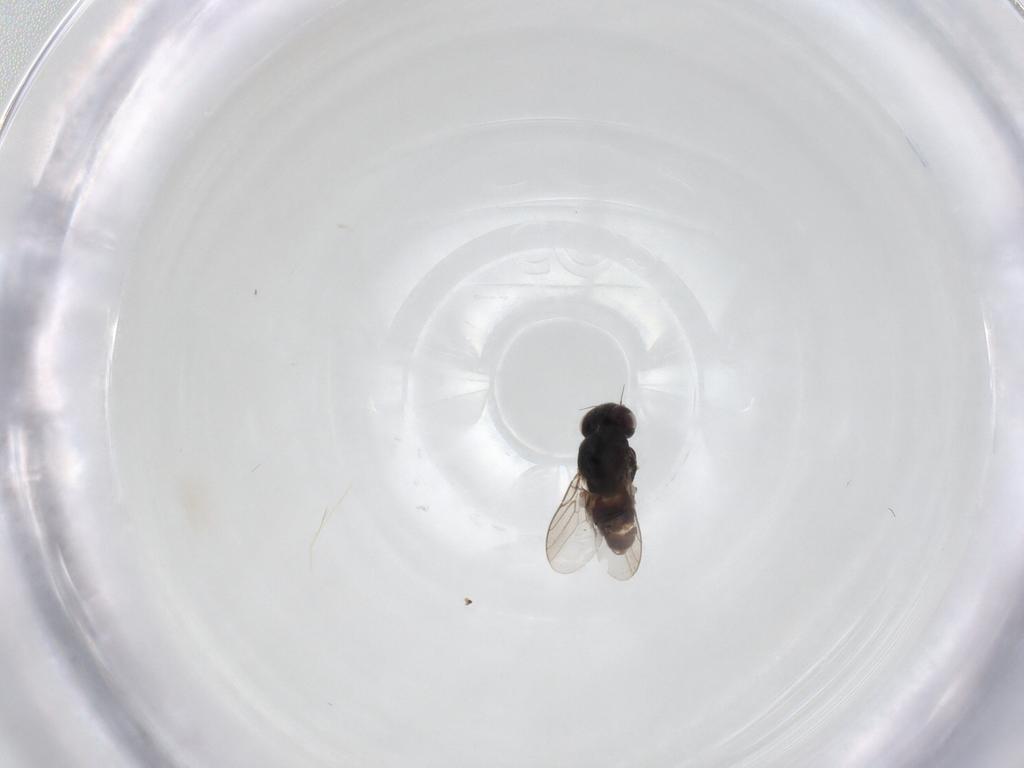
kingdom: Animalia
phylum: Arthropoda
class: Insecta
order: Diptera
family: Chloropidae
